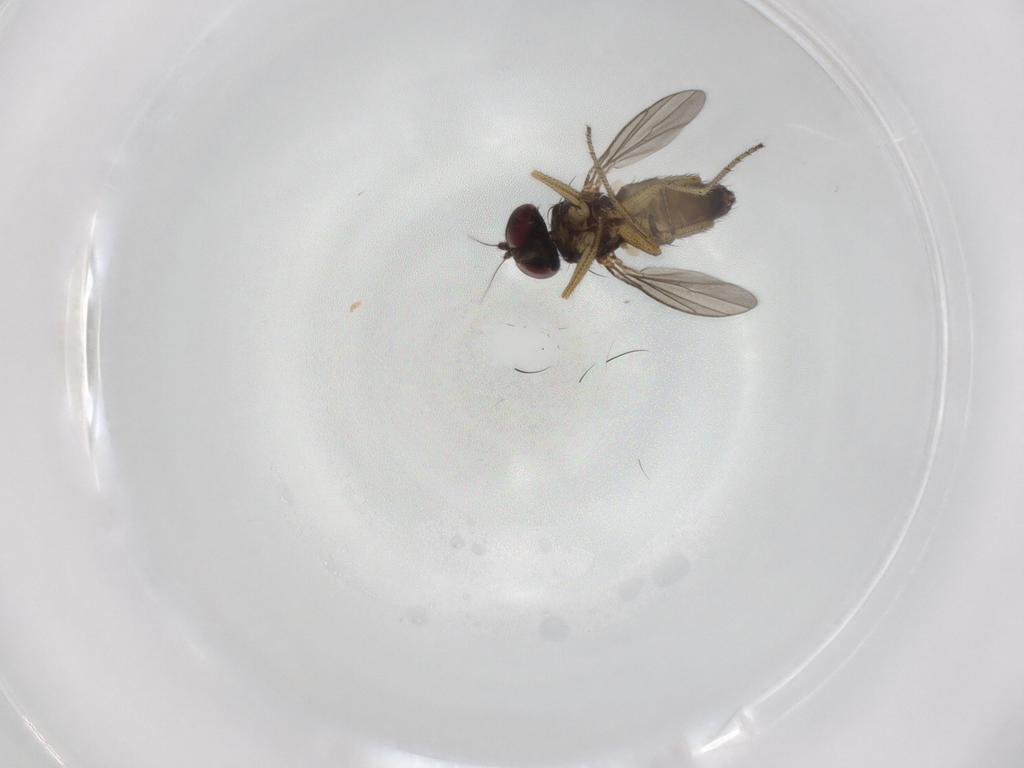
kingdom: Animalia
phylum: Arthropoda
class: Insecta
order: Diptera
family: Dolichopodidae
